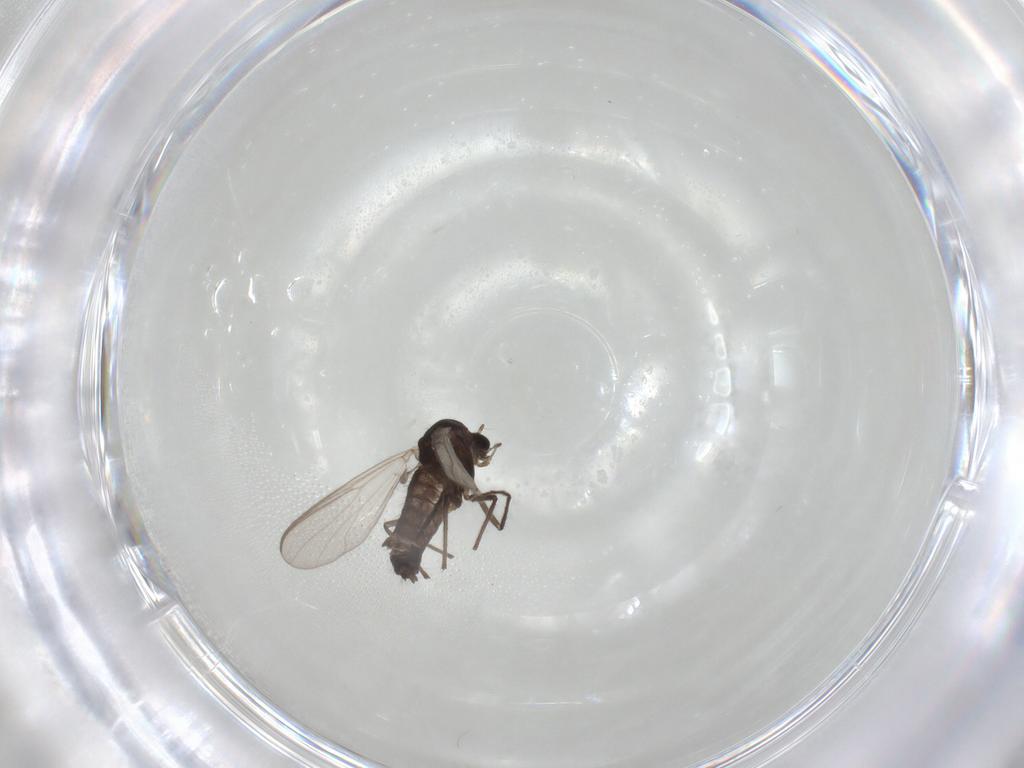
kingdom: Animalia
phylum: Arthropoda
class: Insecta
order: Diptera
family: Chironomidae
